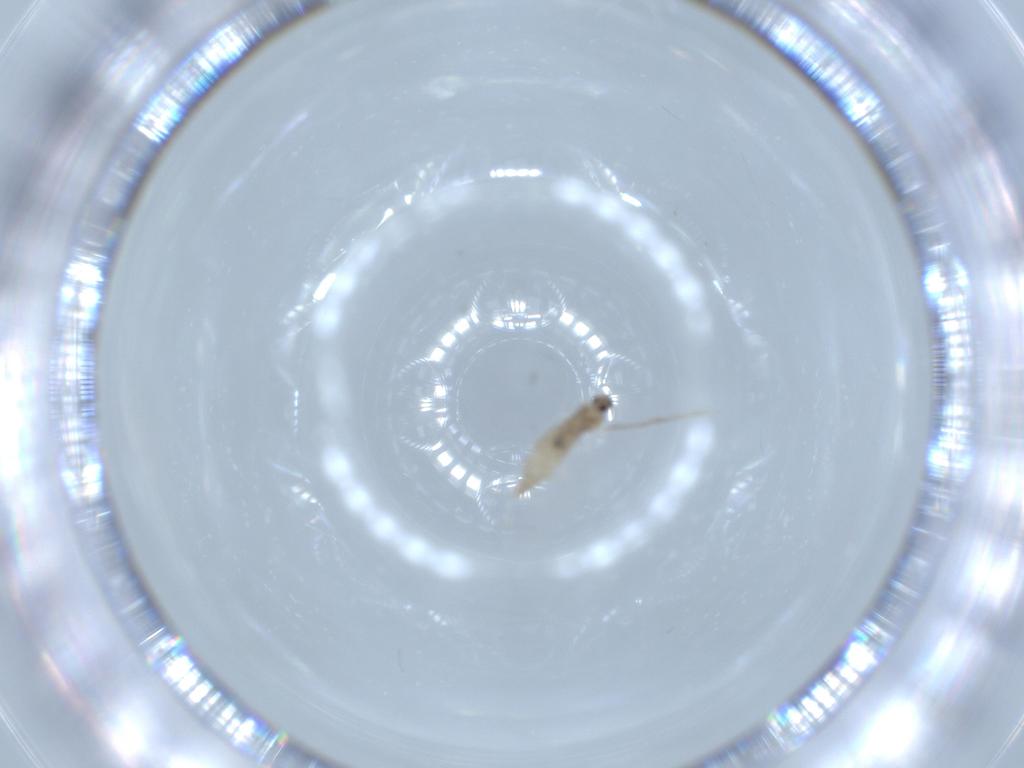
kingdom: Animalia
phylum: Arthropoda
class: Insecta
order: Diptera
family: Cecidomyiidae
